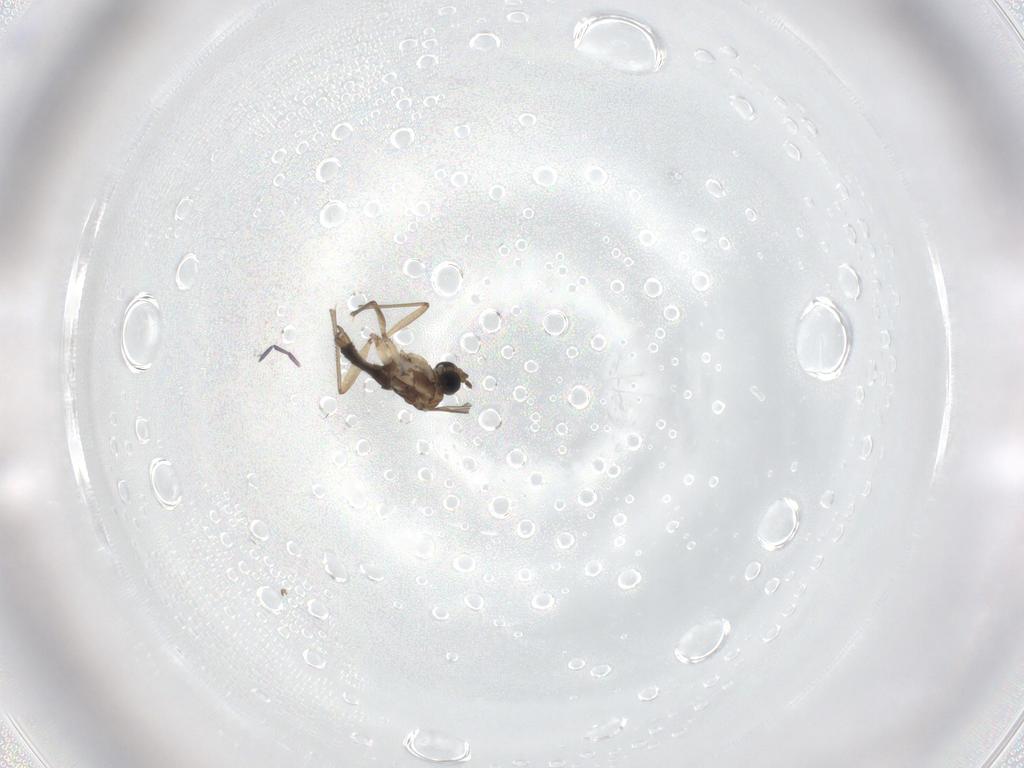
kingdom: Animalia
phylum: Arthropoda
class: Insecta
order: Diptera
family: Sciaridae
